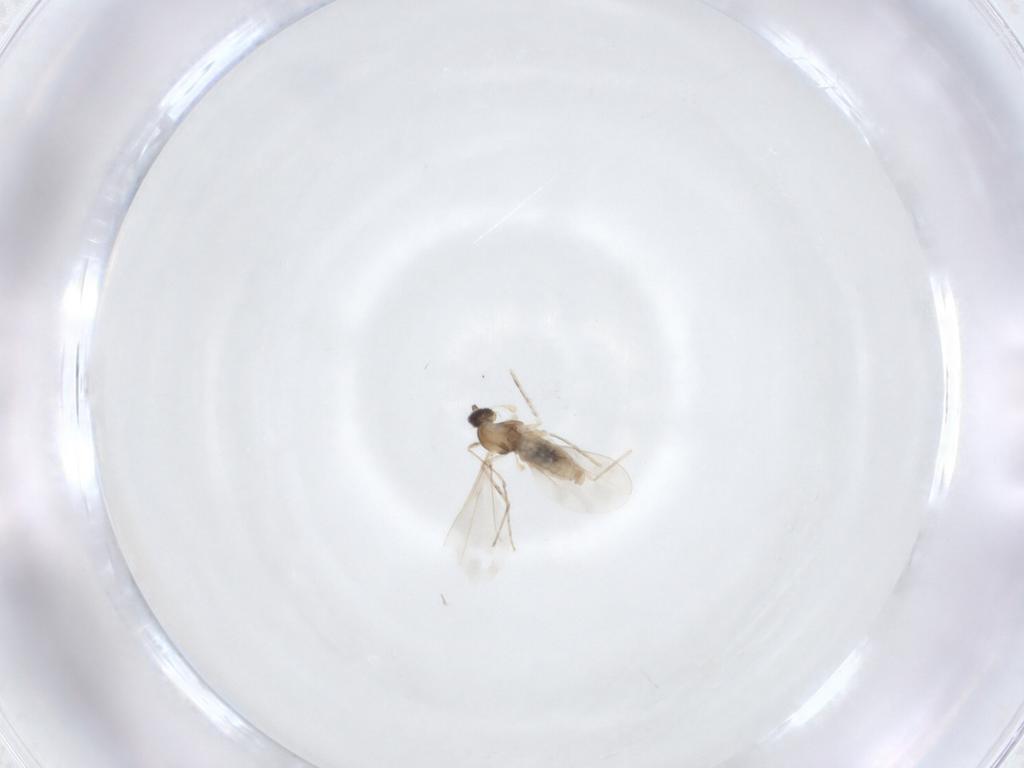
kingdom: Animalia
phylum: Arthropoda
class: Insecta
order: Diptera
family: Cecidomyiidae
